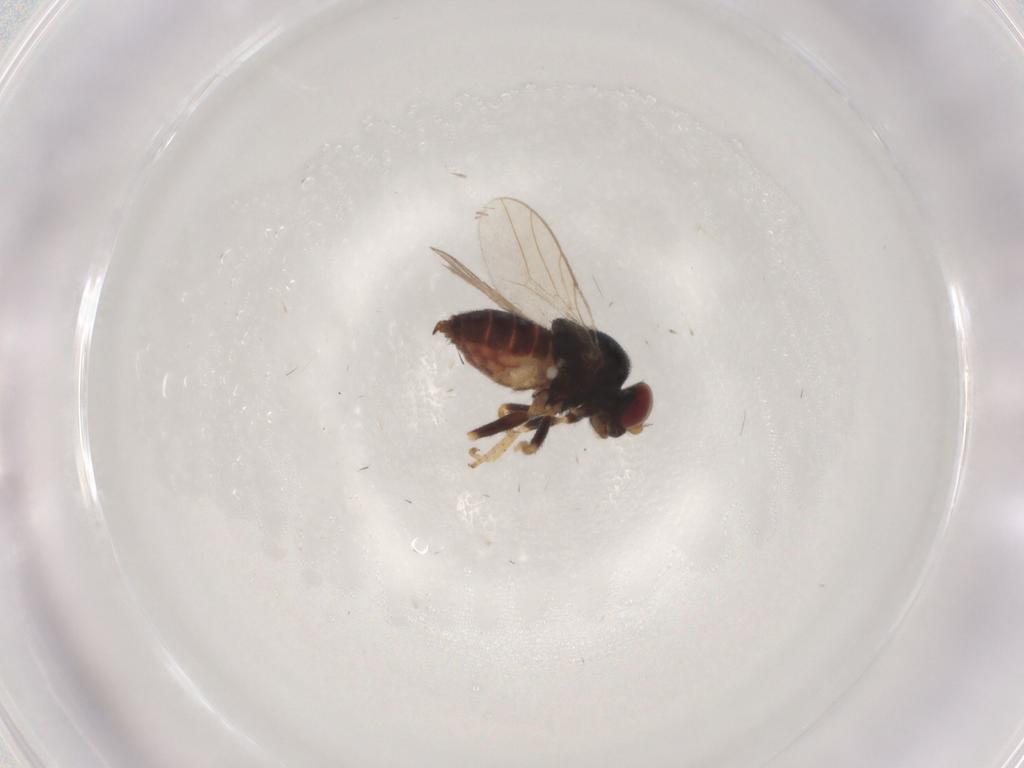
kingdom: Animalia
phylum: Arthropoda
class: Insecta
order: Diptera
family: Chloropidae
